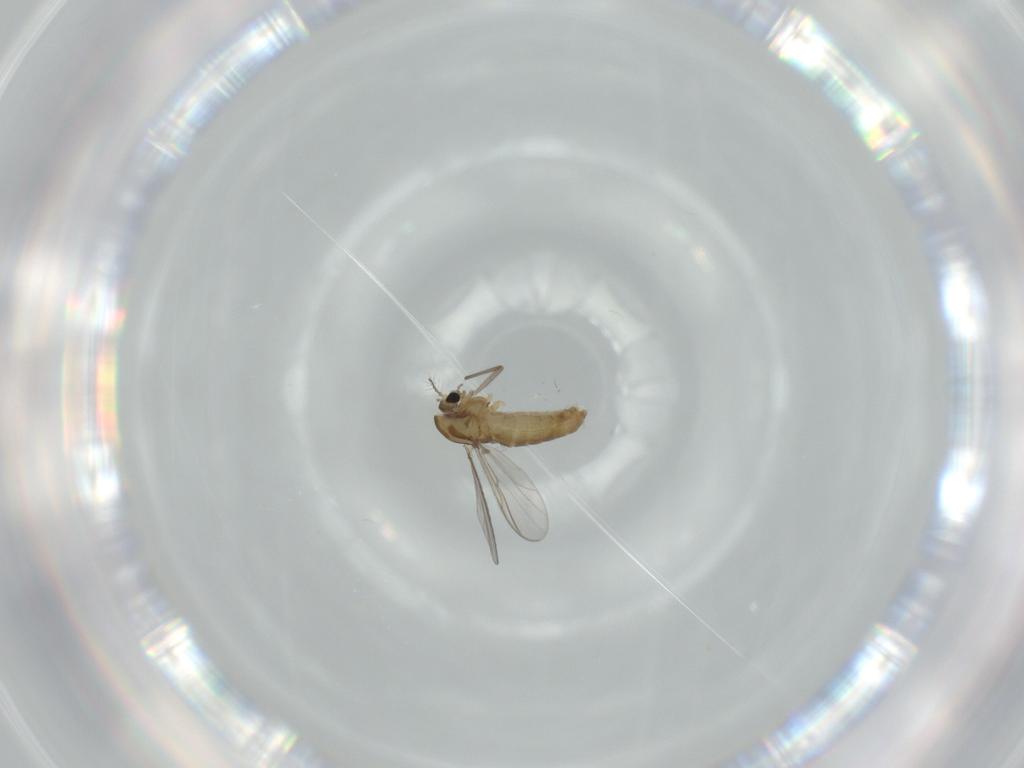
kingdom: Animalia
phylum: Arthropoda
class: Insecta
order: Diptera
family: Chironomidae
